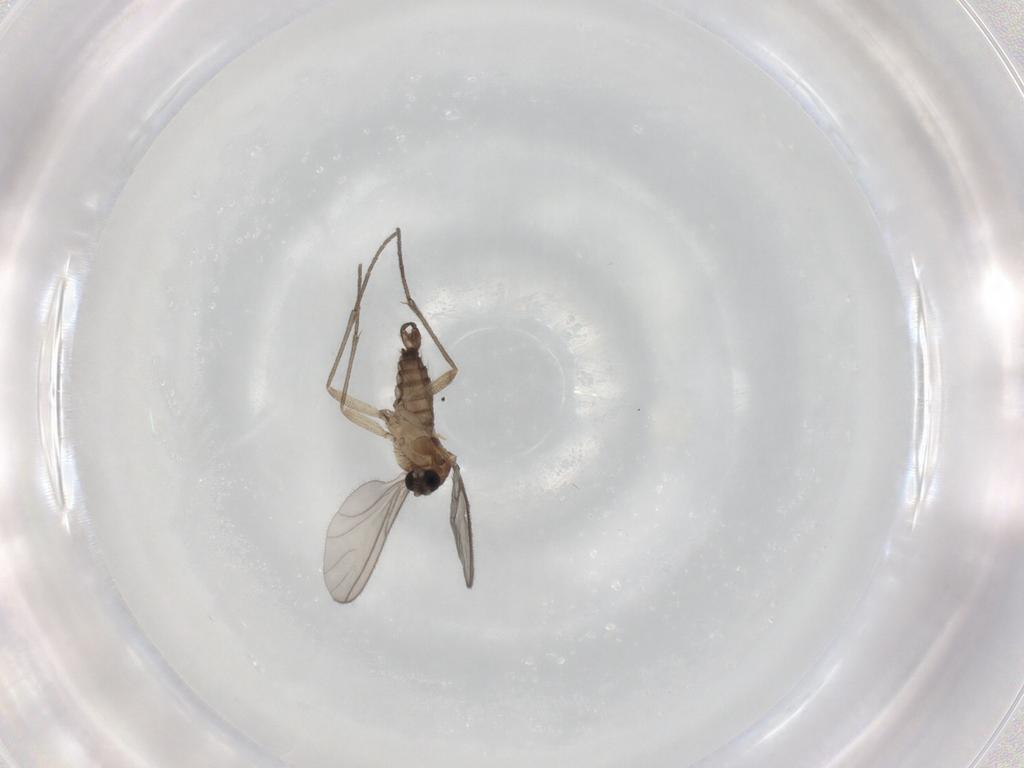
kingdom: Animalia
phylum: Arthropoda
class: Insecta
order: Diptera
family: Sciaridae
